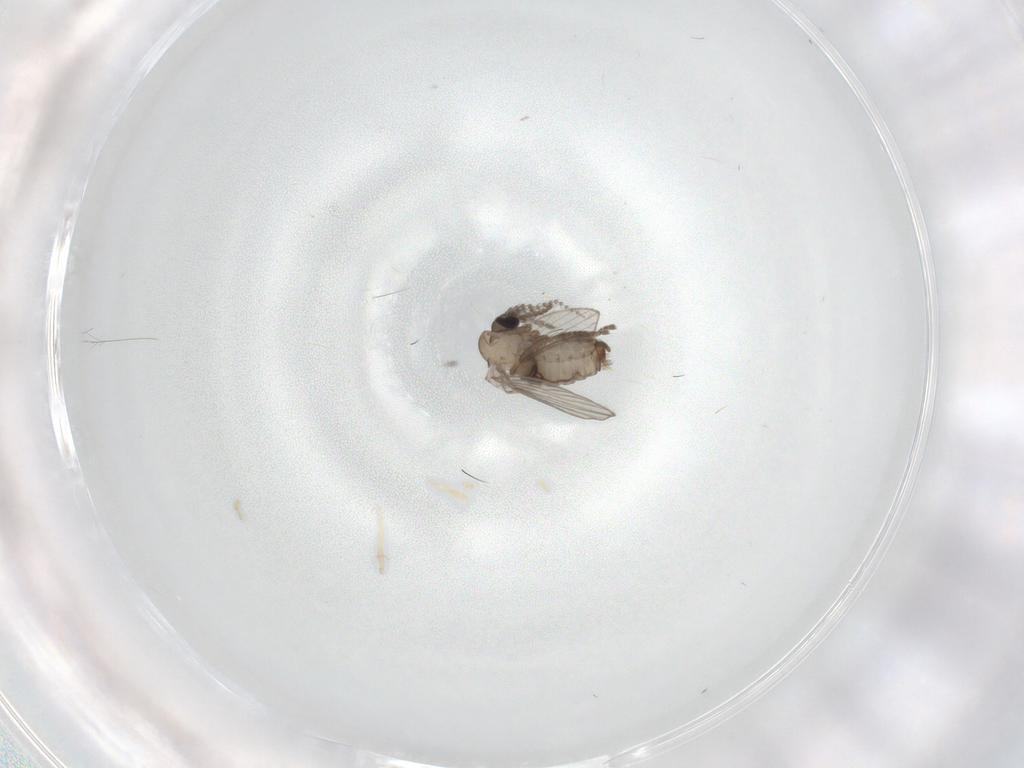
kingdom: Animalia
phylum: Arthropoda
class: Insecta
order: Diptera
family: Psychodidae
